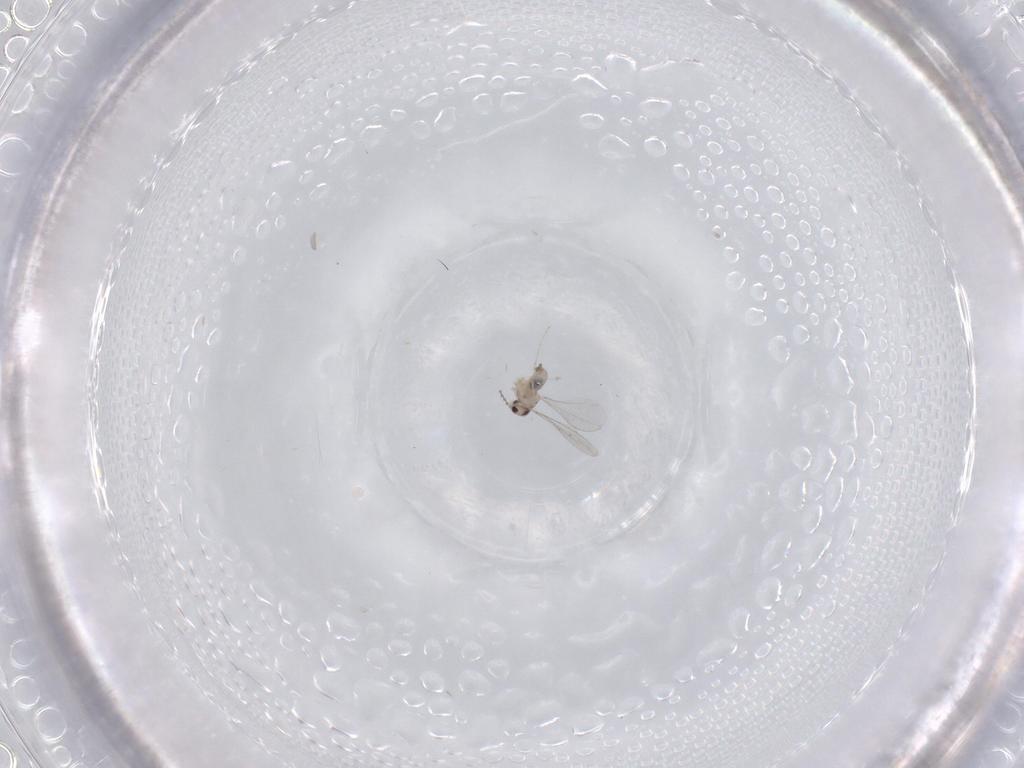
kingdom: Animalia
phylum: Arthropoda
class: Insecta
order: Diptera
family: Cecidomyiidae
